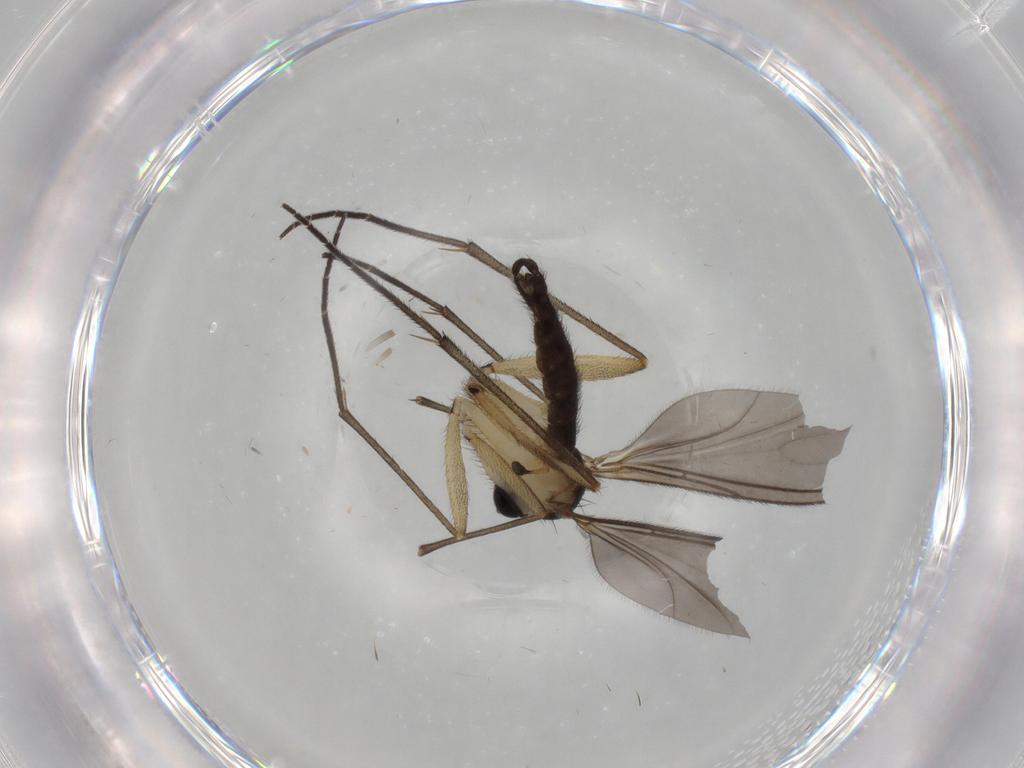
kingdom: Animalia
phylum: Arthropoda
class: Insecta
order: Diptera
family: Sciaridae
